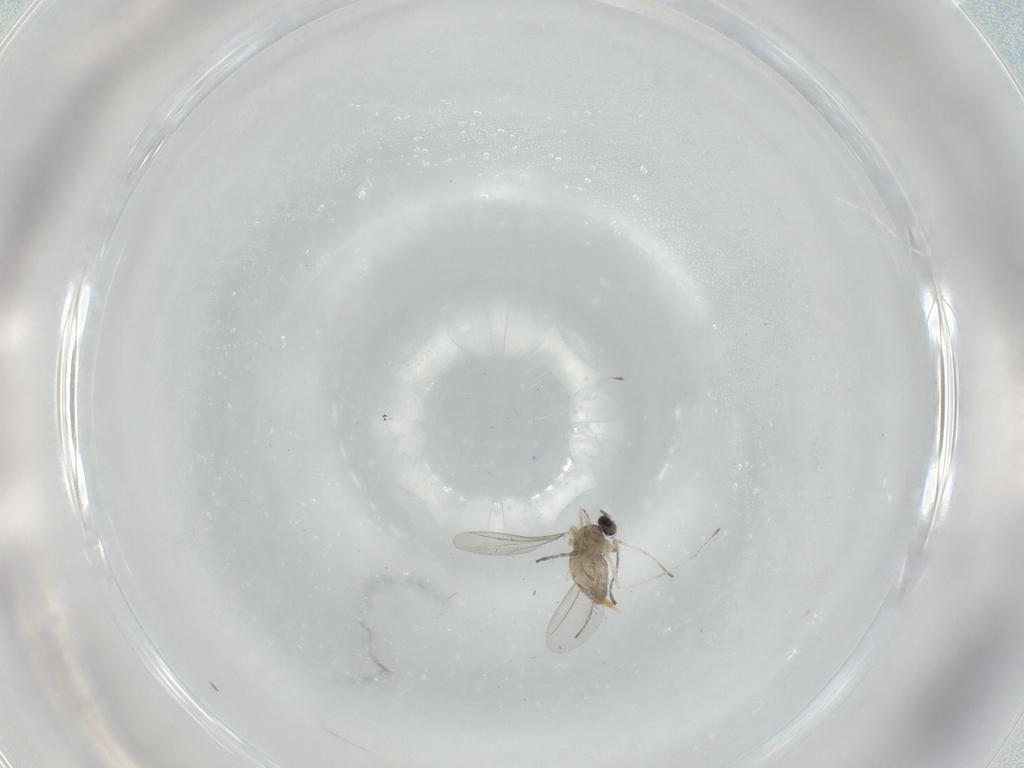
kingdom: Animalia
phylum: Arthropoda
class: Insecta
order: Diptera
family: Cecidomyiidae
